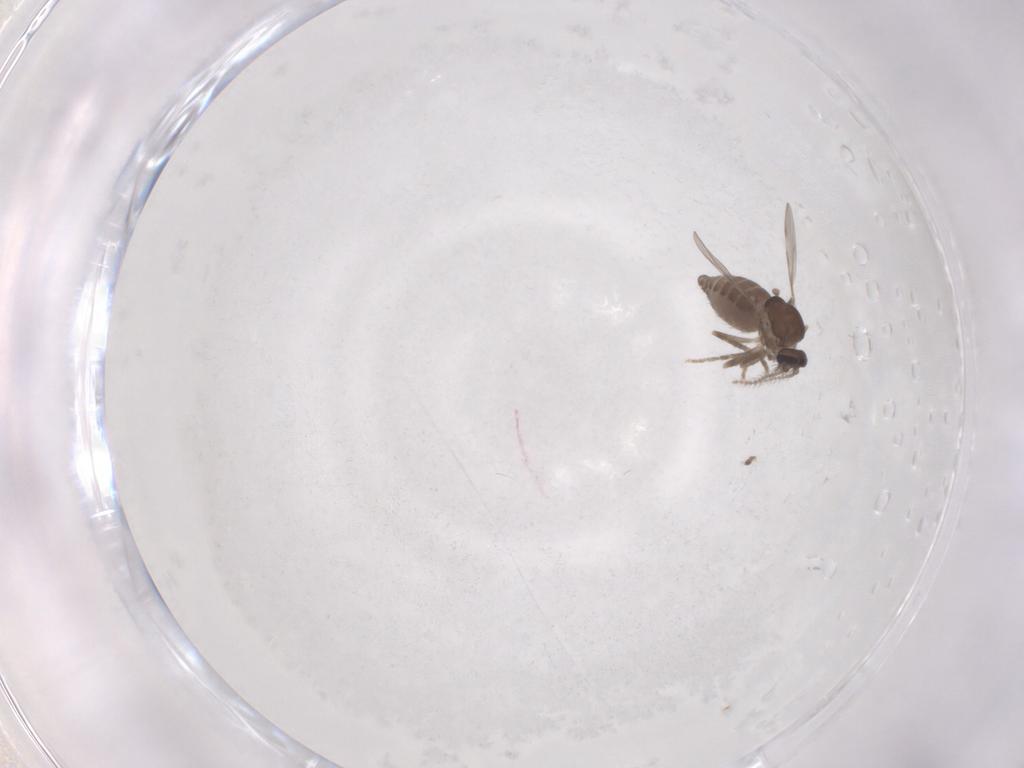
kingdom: Animalia
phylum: Arthropoda
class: Insecta
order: Diptera
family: Ceratopogonidae
